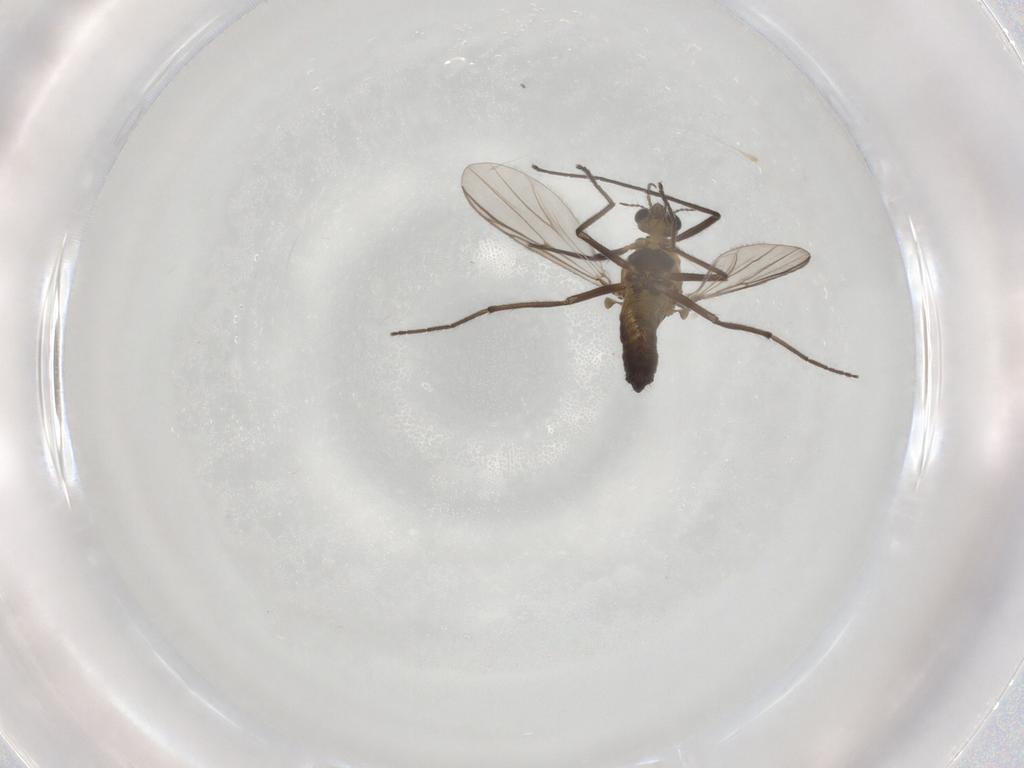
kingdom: Animalia
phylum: Arthropoda
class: Insecta
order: Diptera
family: Chironomidae
